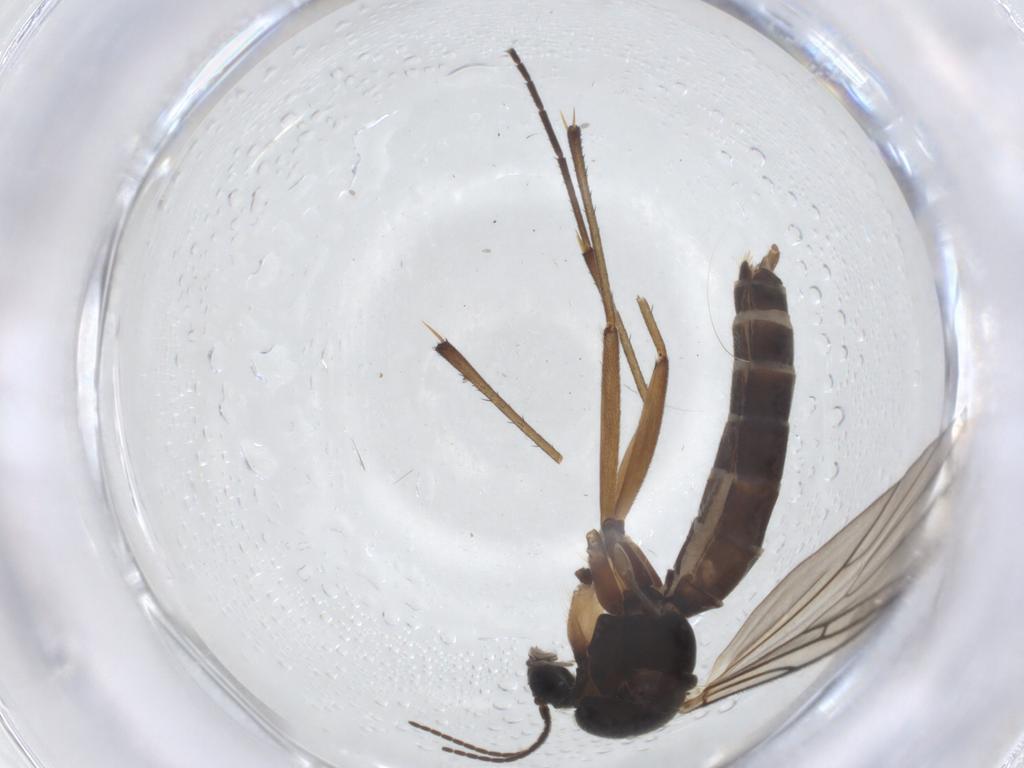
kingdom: Animalia
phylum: Arthropoda
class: Insecta
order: Diptera
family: Mycetophilidae
